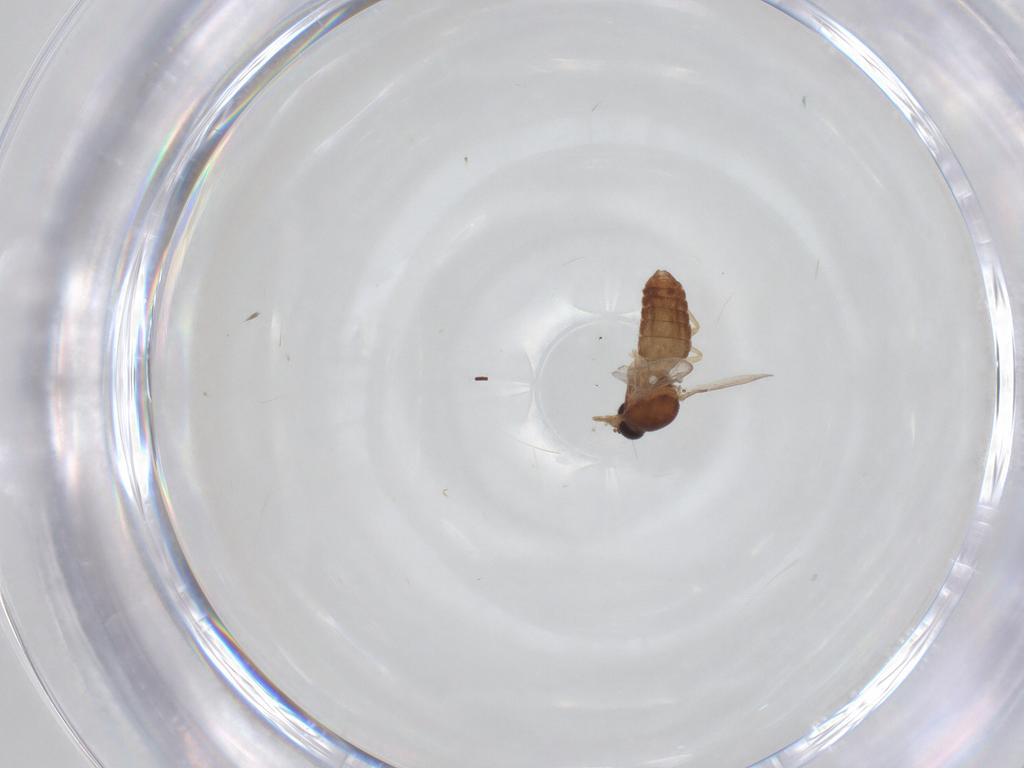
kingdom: Animalia
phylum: Arthropoda
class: Insecta
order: Diptera
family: Ceratopogonidae
